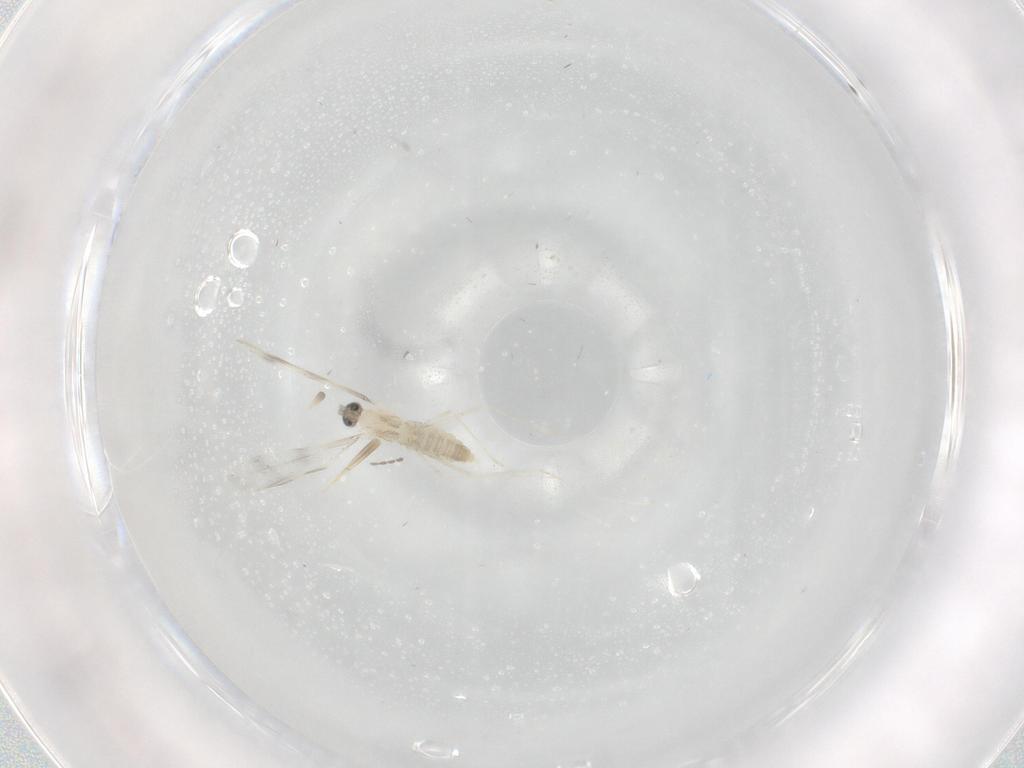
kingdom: Animalia
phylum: Arthropoda
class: Insecta
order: Diptera
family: Cecidomyiidae
